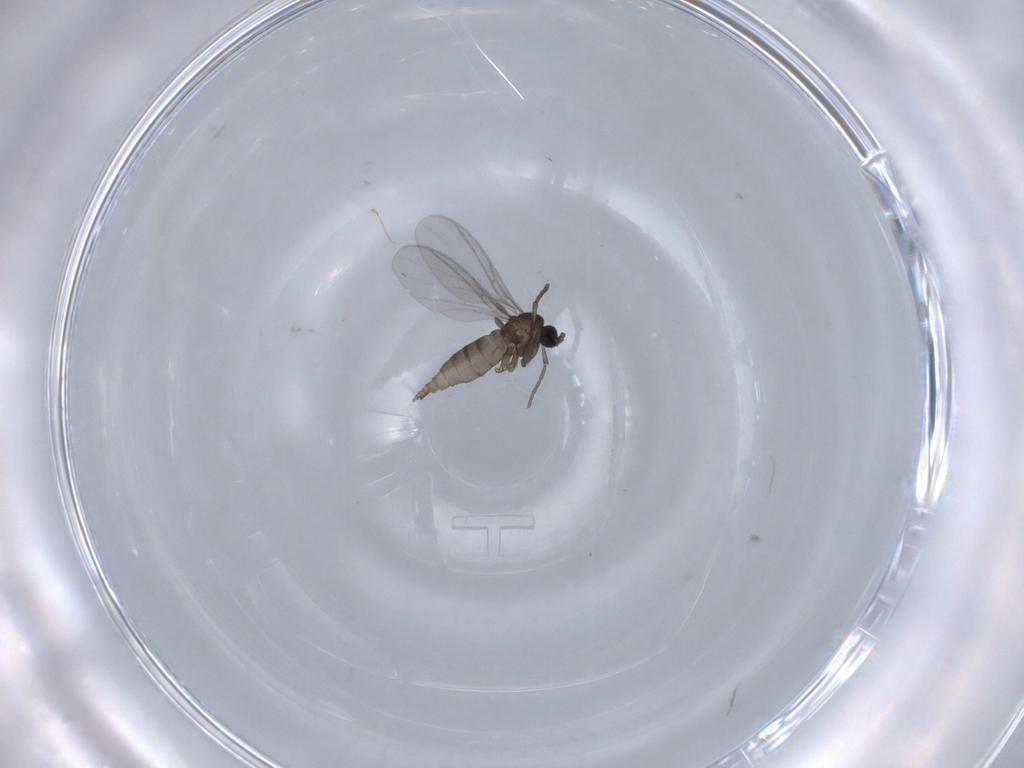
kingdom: Animalia
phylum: Arthropoda
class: Insecta
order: Diptera
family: Sciaridae
